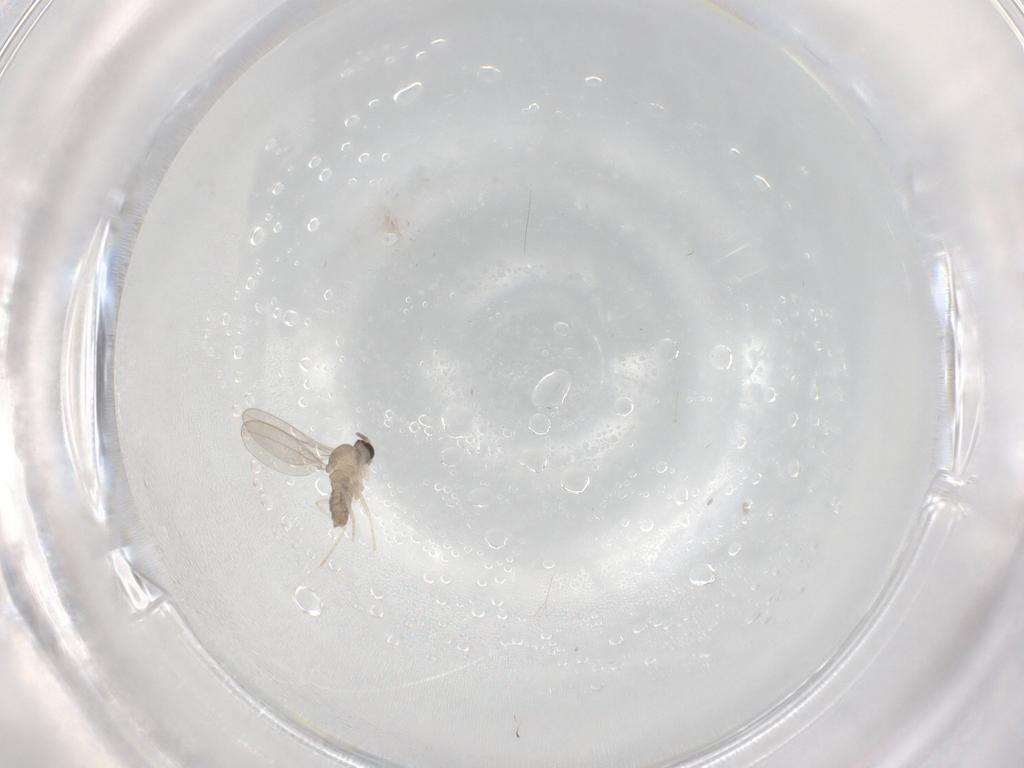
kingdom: Animalia
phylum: Arthropoda
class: Insecta
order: Diptera
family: Cecidomyiidae
